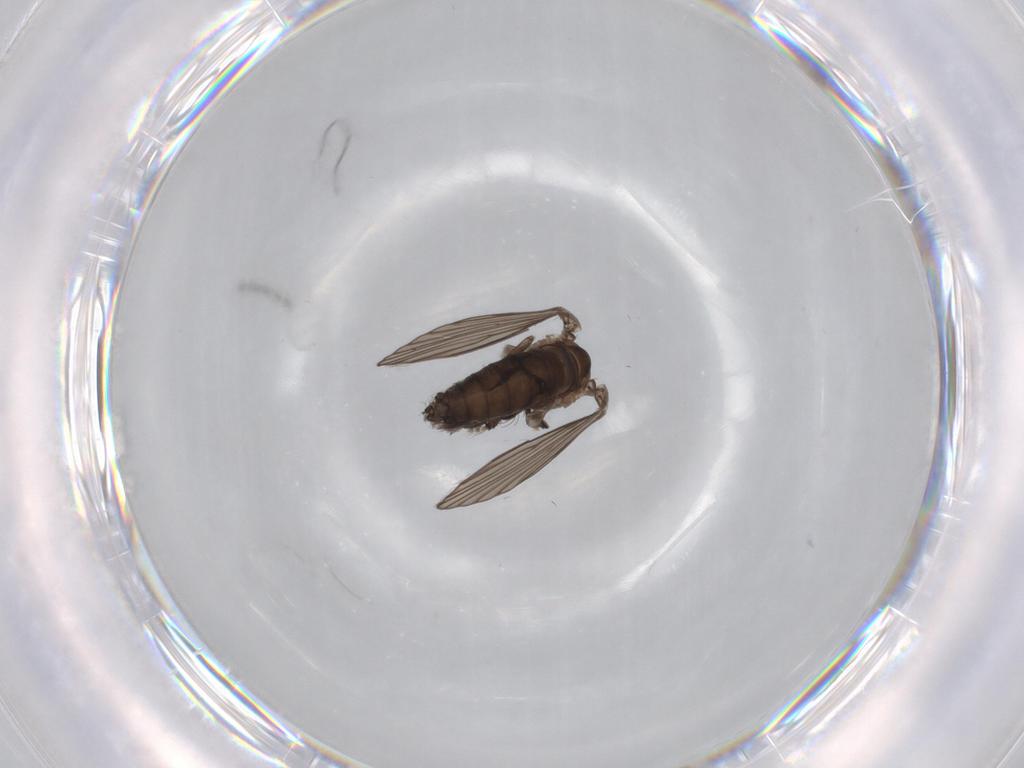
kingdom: Animalia
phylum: Arthropoda
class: Insecta
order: Diptera
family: Psychodidae
